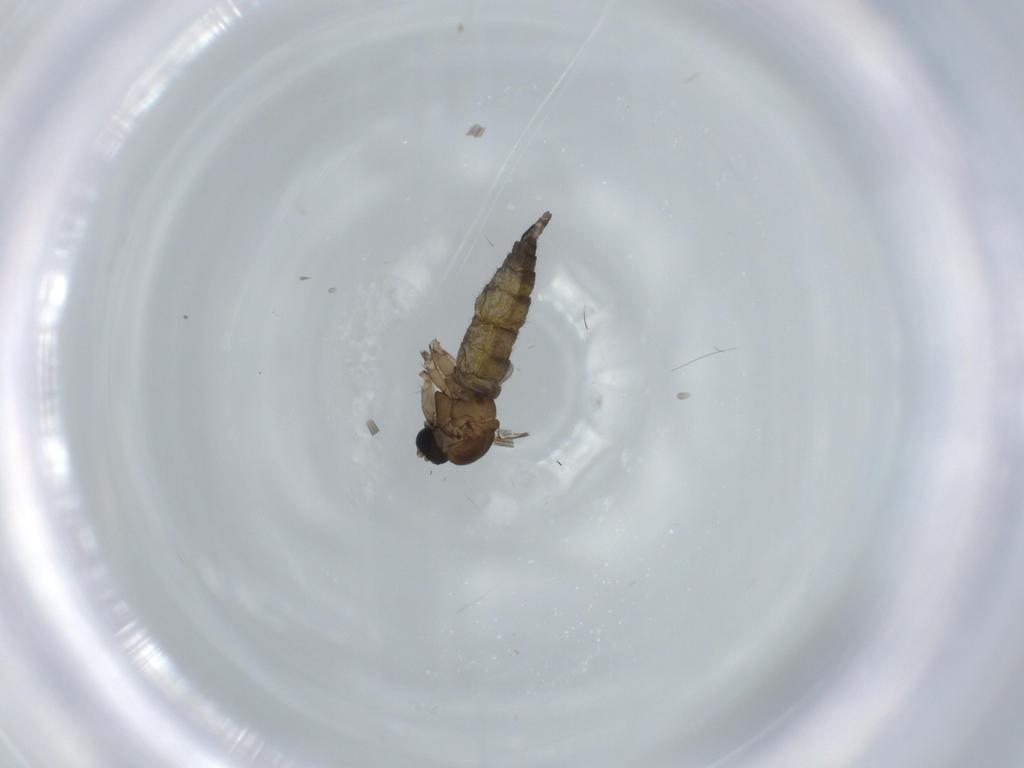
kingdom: Animalia
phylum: Arthropoda
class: Insecta
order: Diptera
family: Sciaridae
